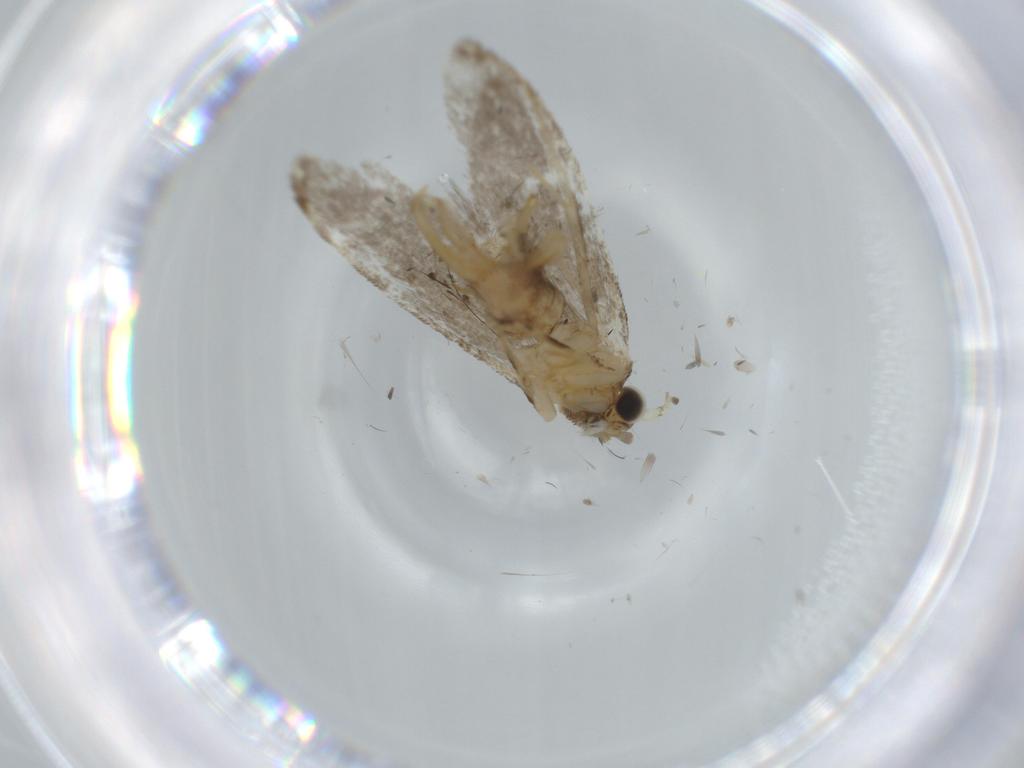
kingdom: Animalia
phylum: Arthropoda
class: Insecta
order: Lepidoptera
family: Tineidae
